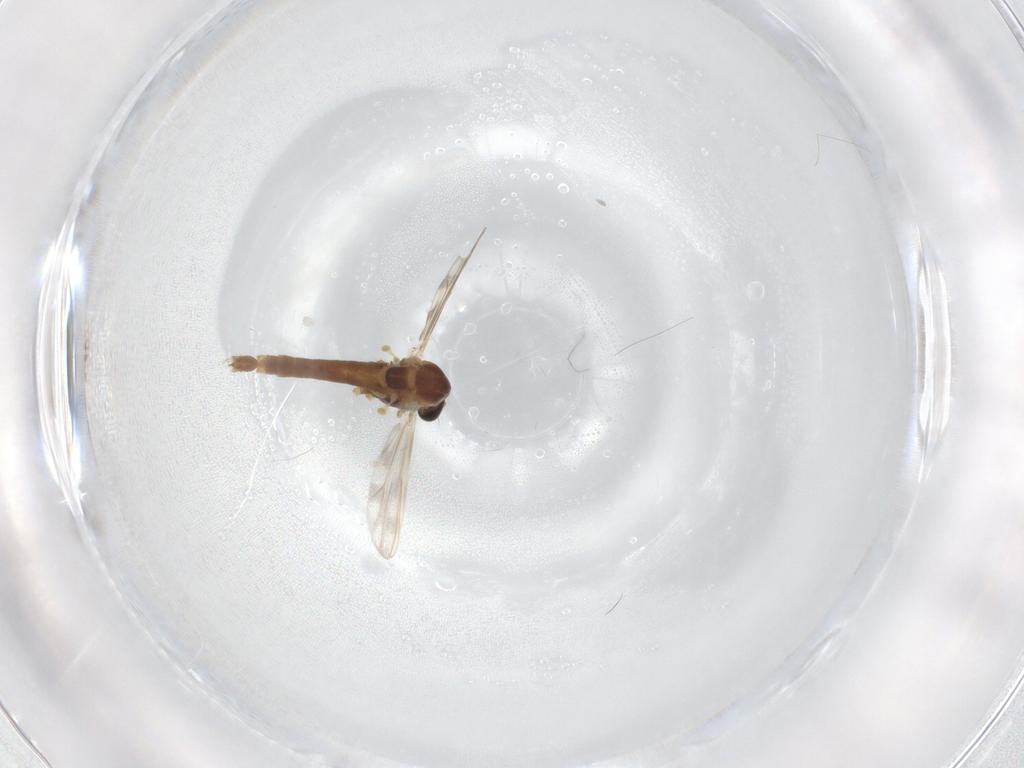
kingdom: Animalia
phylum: Arthropoda
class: Insecta
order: Diptera
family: Chironomidae
